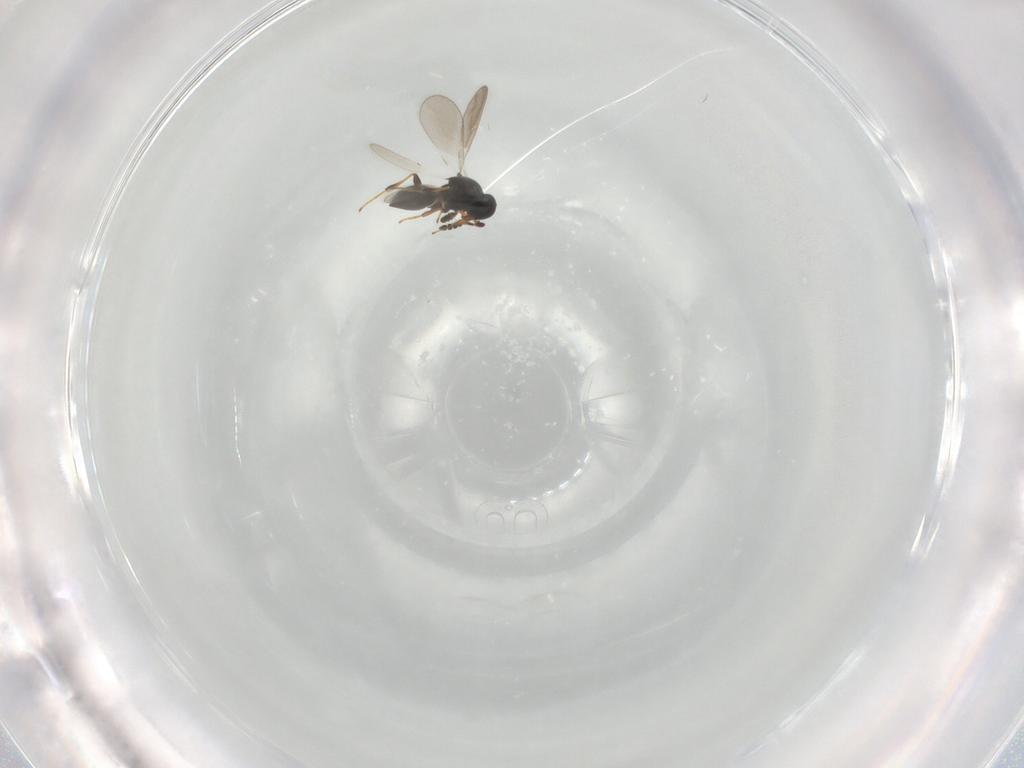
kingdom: Animalia
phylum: Arthropoda
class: Insecta
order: Hymenoptera
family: Platygastridae
